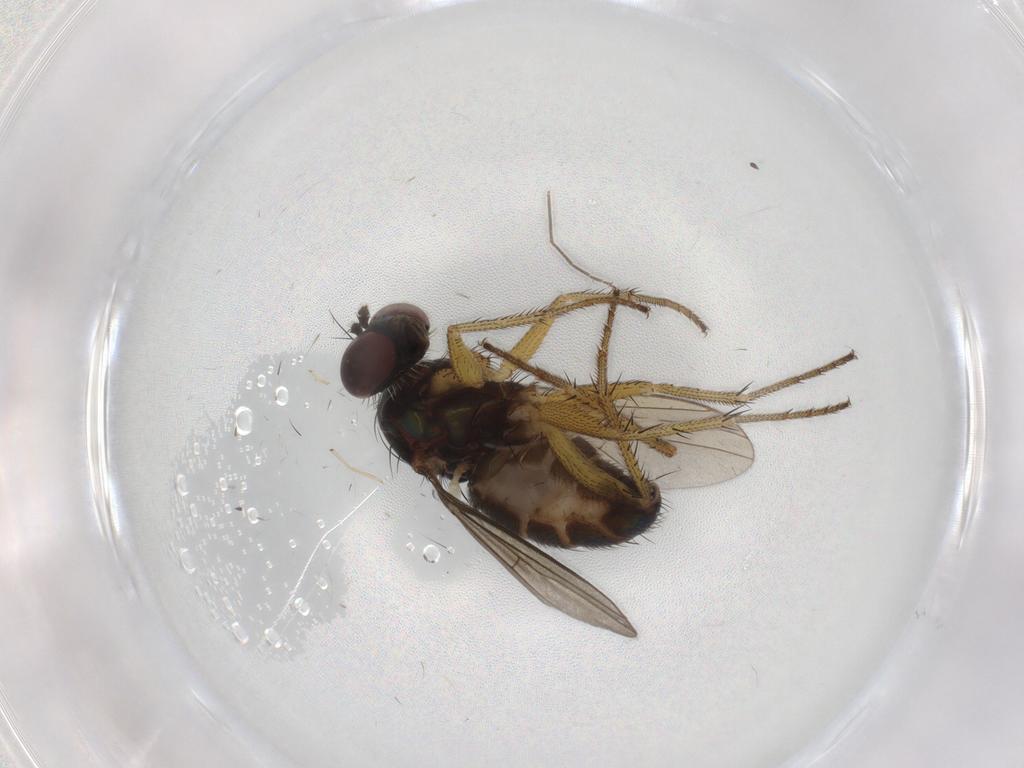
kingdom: Animalia
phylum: Arthropoda
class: Insecta
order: Diptera
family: Dolichopodidae
